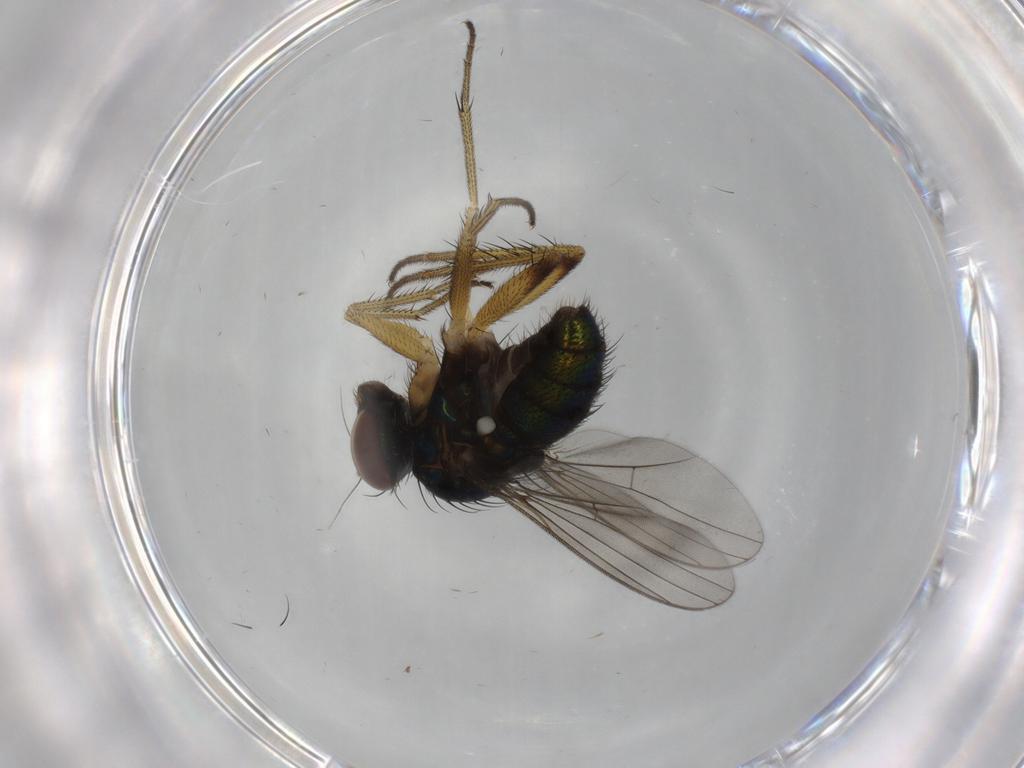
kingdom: Animalia
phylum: Arthropoda
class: Insecta
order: Diptera
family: Dolichopodidae
